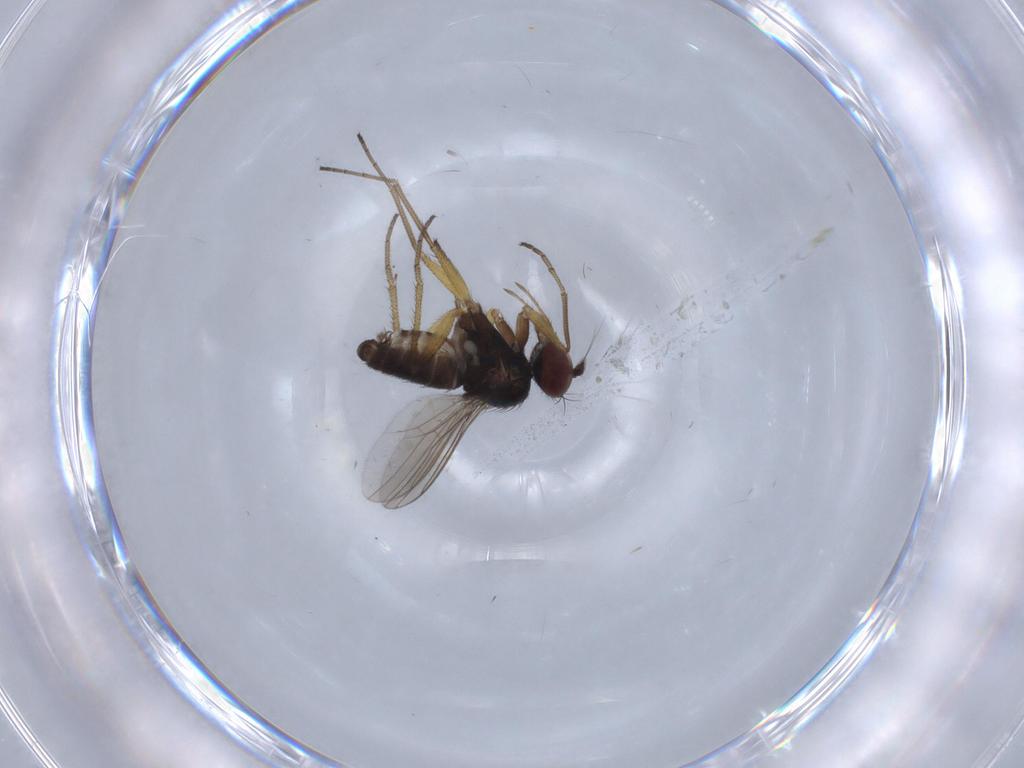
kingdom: Animalia
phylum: Arthropoda
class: Insecta
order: Diptera
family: Dolichopodidae
